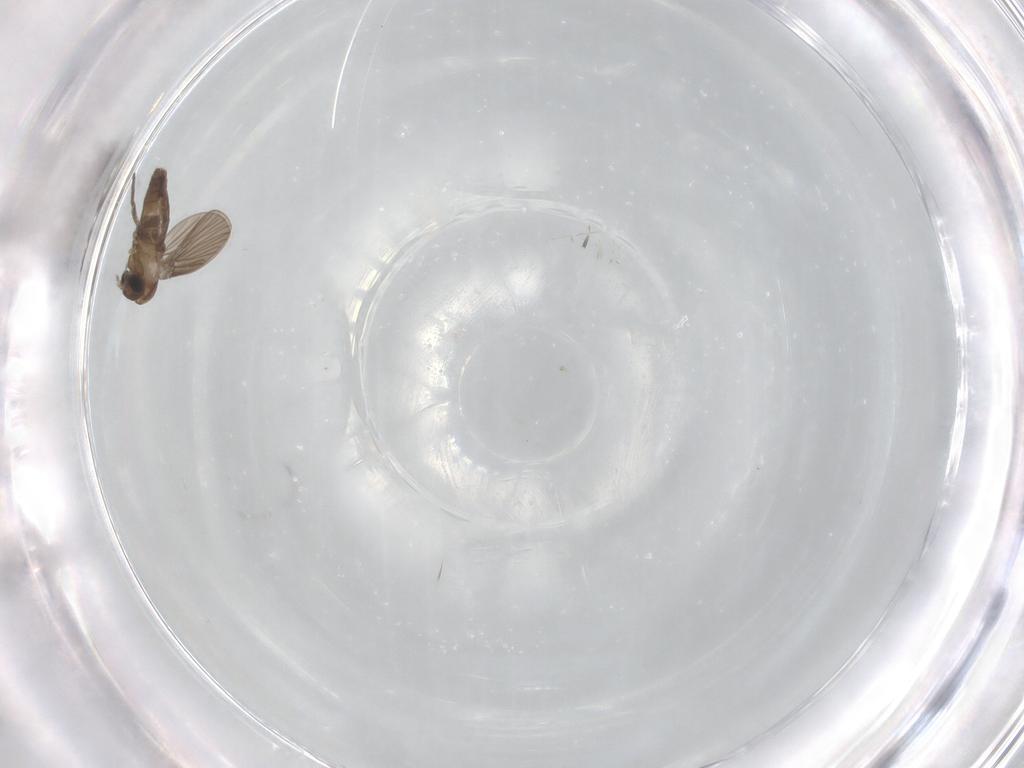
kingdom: Animalia
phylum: Arthropoda
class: Insecta
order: Diptera
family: Psychodidae
